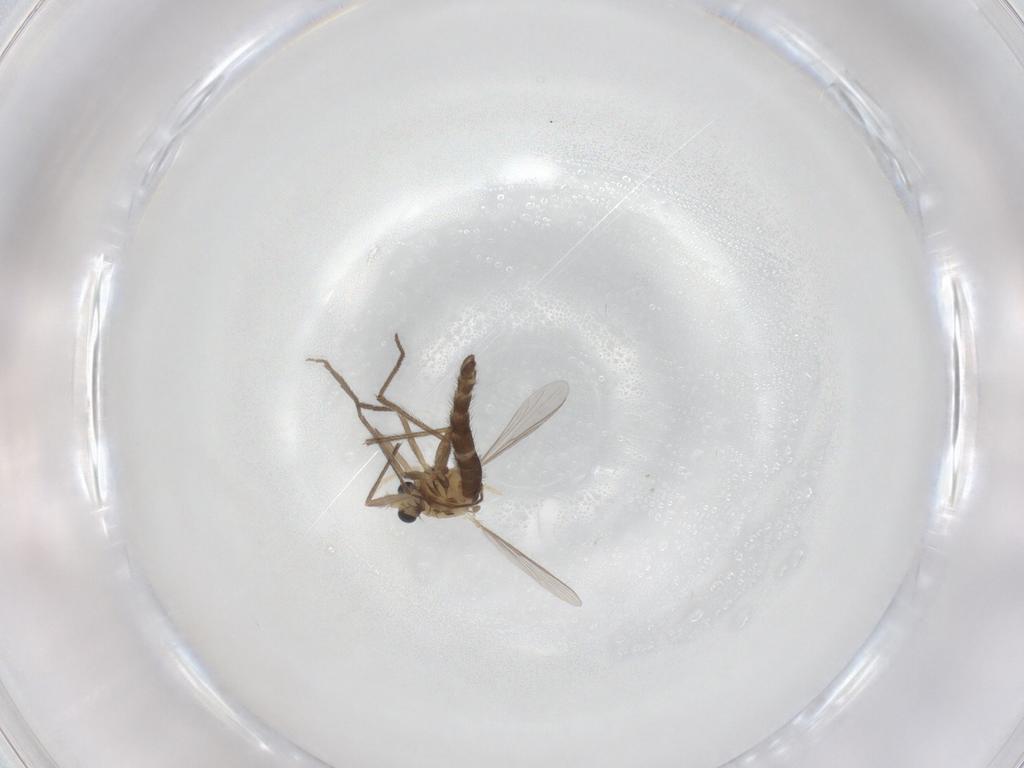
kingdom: Animalia
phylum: Arthropoda
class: Insecta
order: Diptera
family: Chironomidae
